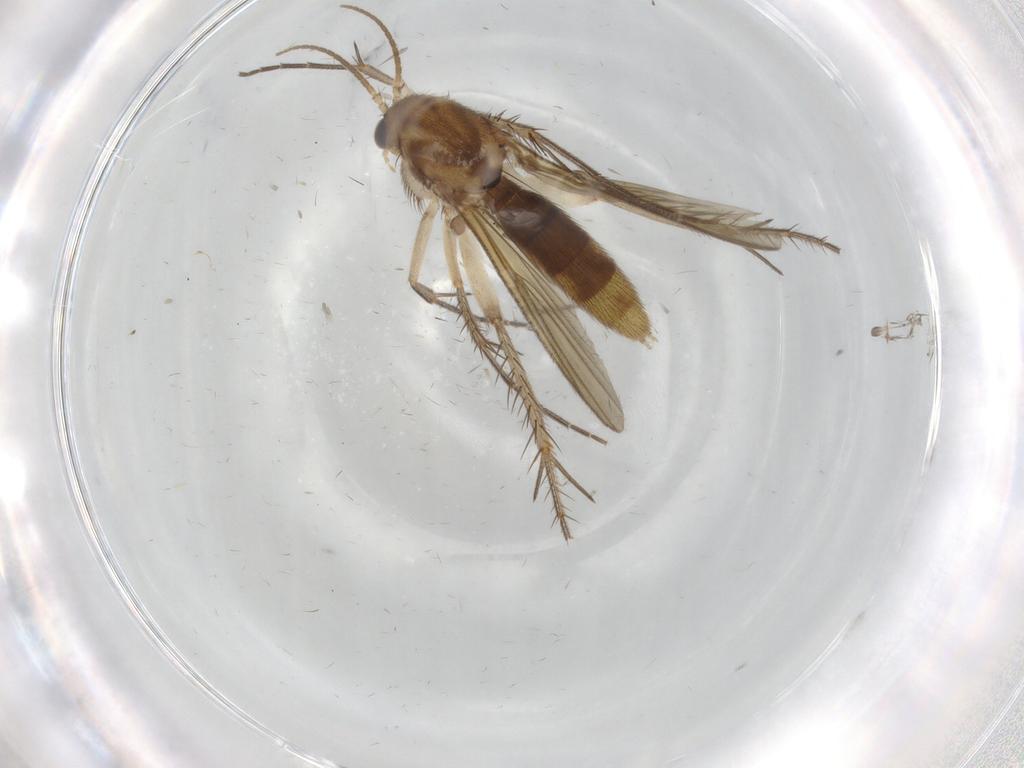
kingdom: Animalia
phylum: Arthropoda
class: Insecta
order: Diptera
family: Mycetophilidae
